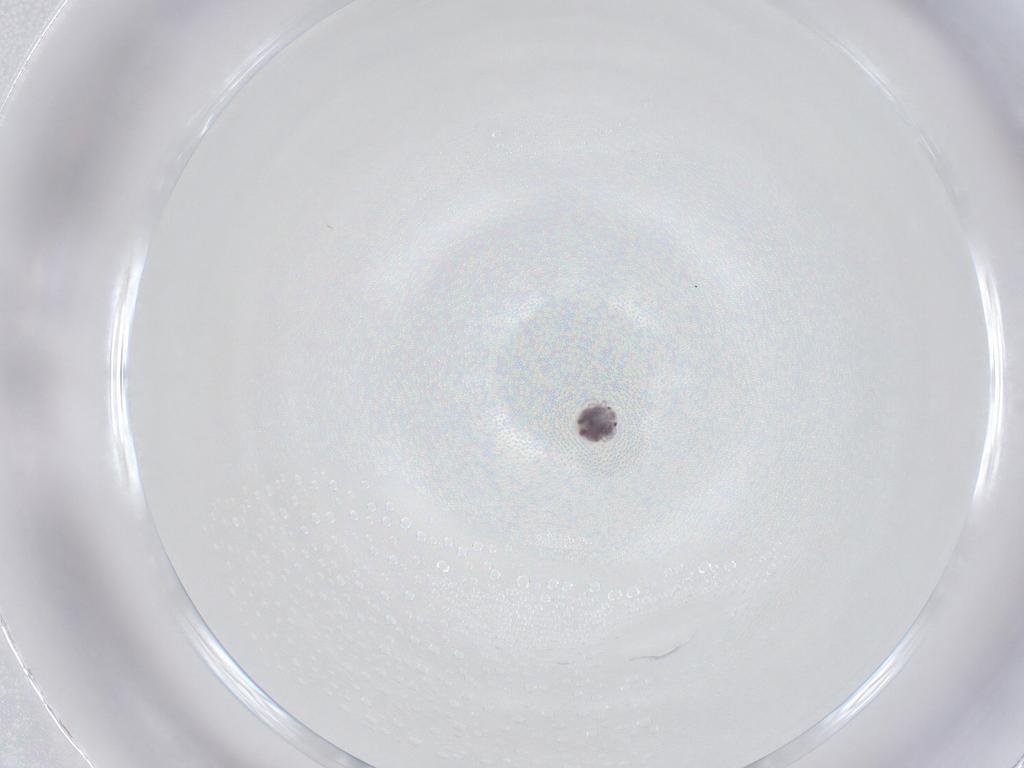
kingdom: Animalia
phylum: Arthropoda
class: Arachnida
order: Trombidiformes
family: Pionidae
